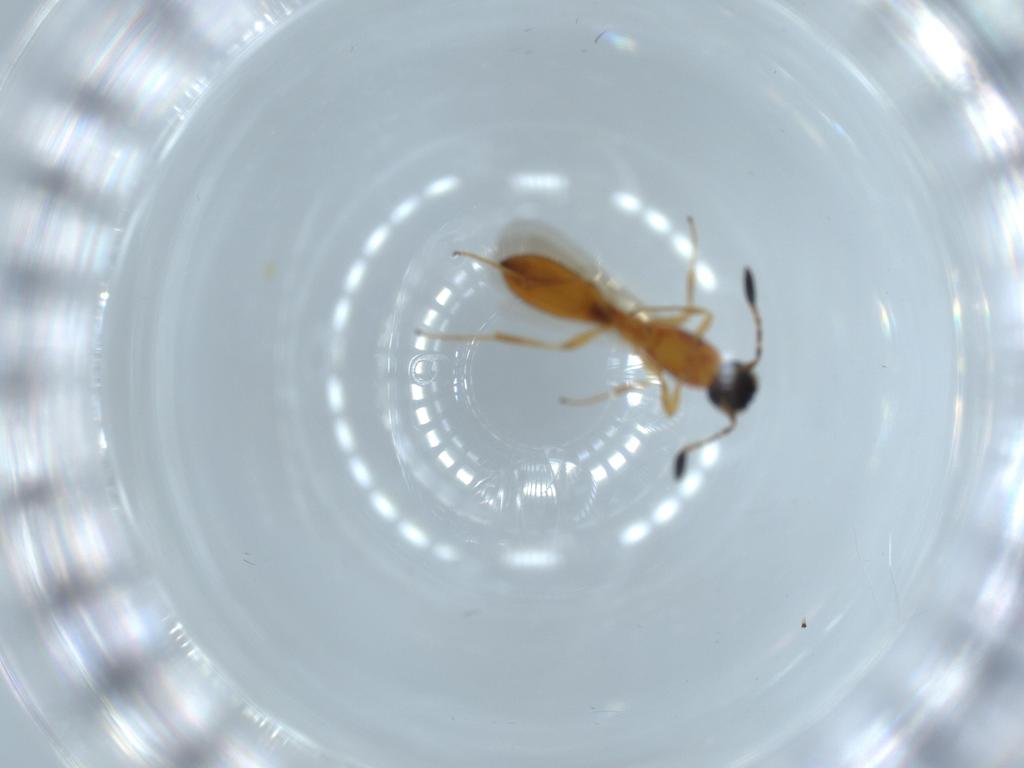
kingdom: Animalia
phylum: Arthropoda
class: Insecta
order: Hymenoptera
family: Scelionidae
